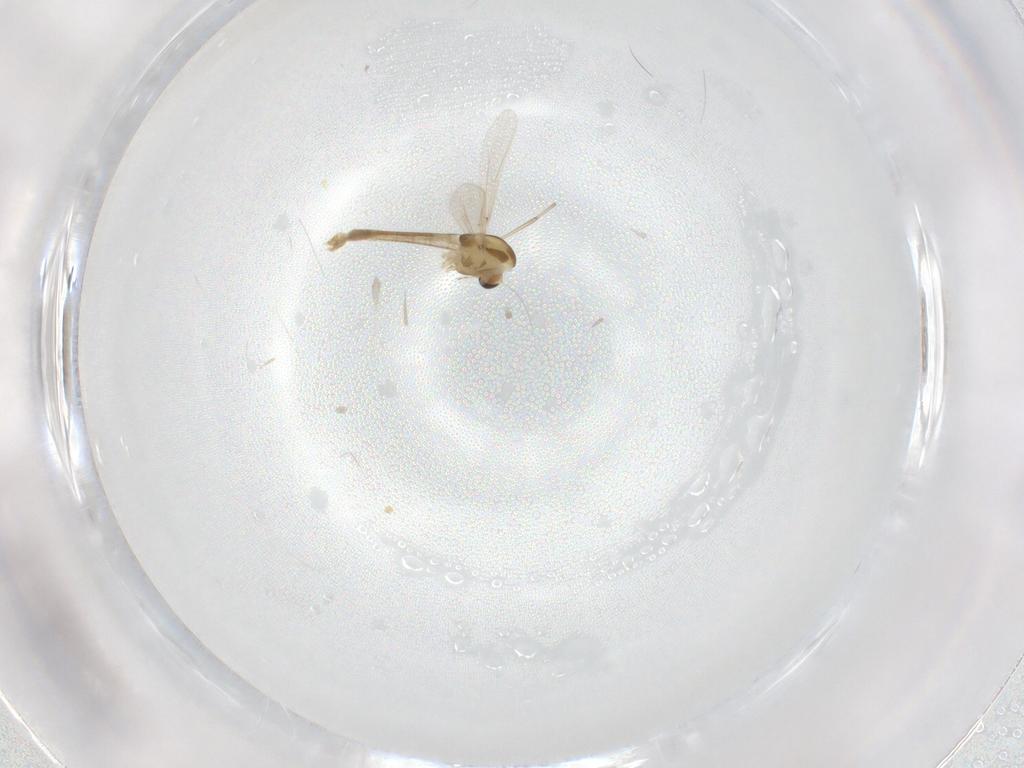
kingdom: Animalia
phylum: Arthropoda
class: Insecta
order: Diptera
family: Chironomidae
